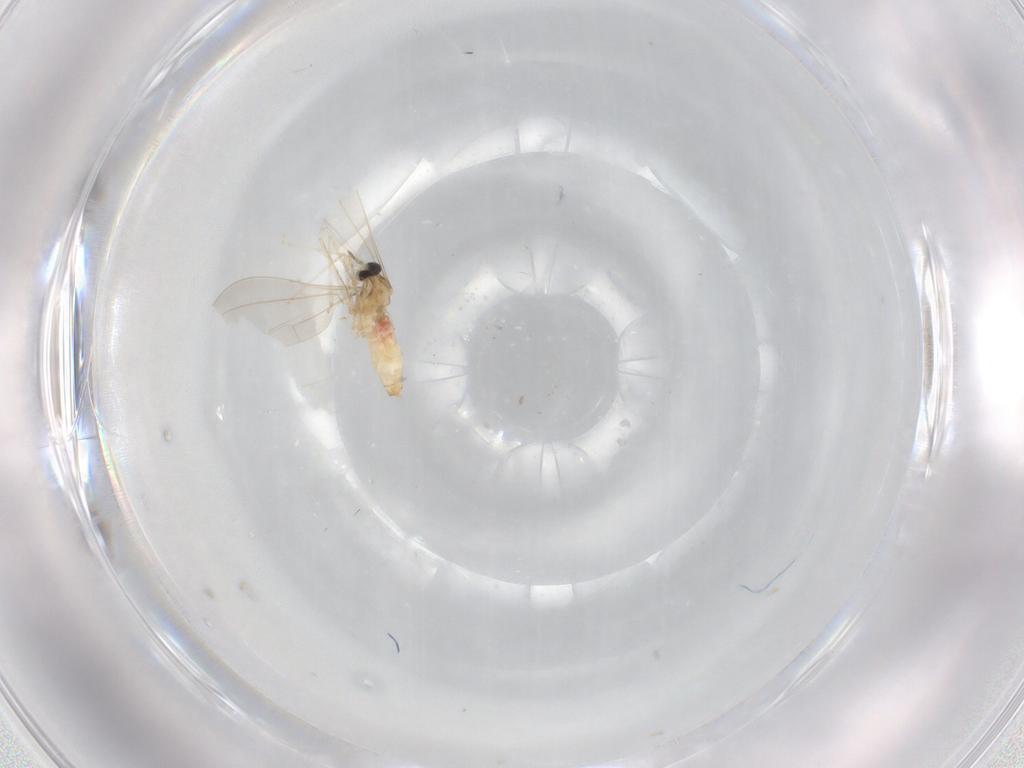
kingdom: Animalia
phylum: Arthropoda
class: Insecta
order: Diptera
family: Cecidomyiidae
